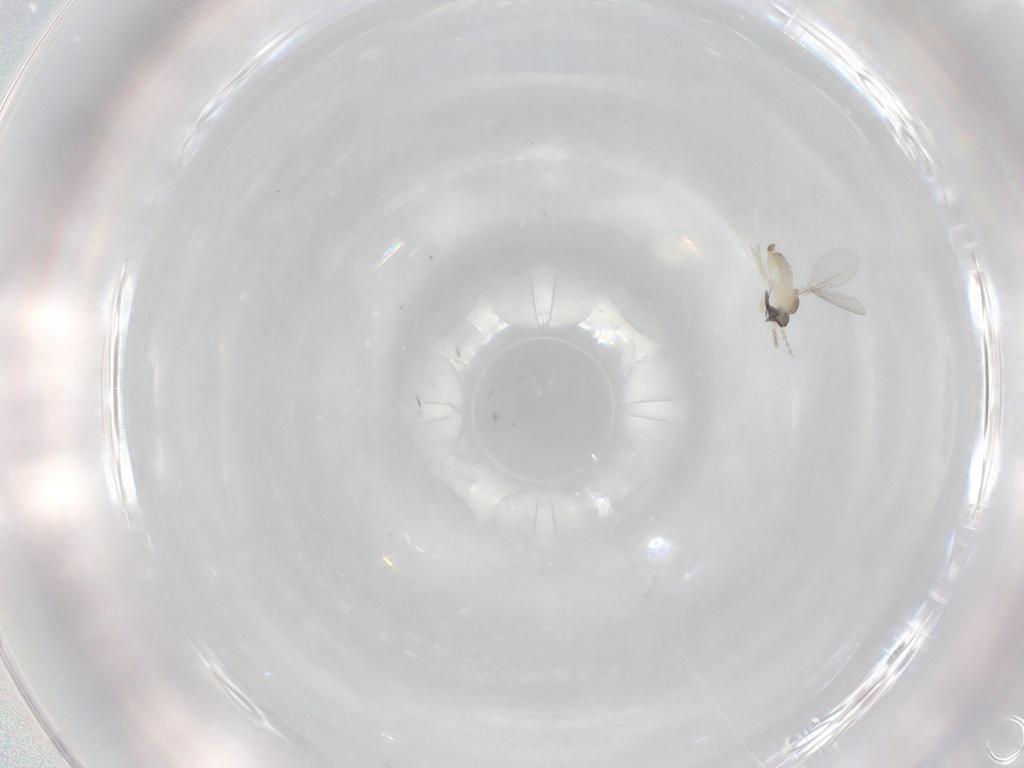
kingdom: Animalia
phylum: Arthropoda
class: Insecta
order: Diptera
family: Cecidomyiidae
